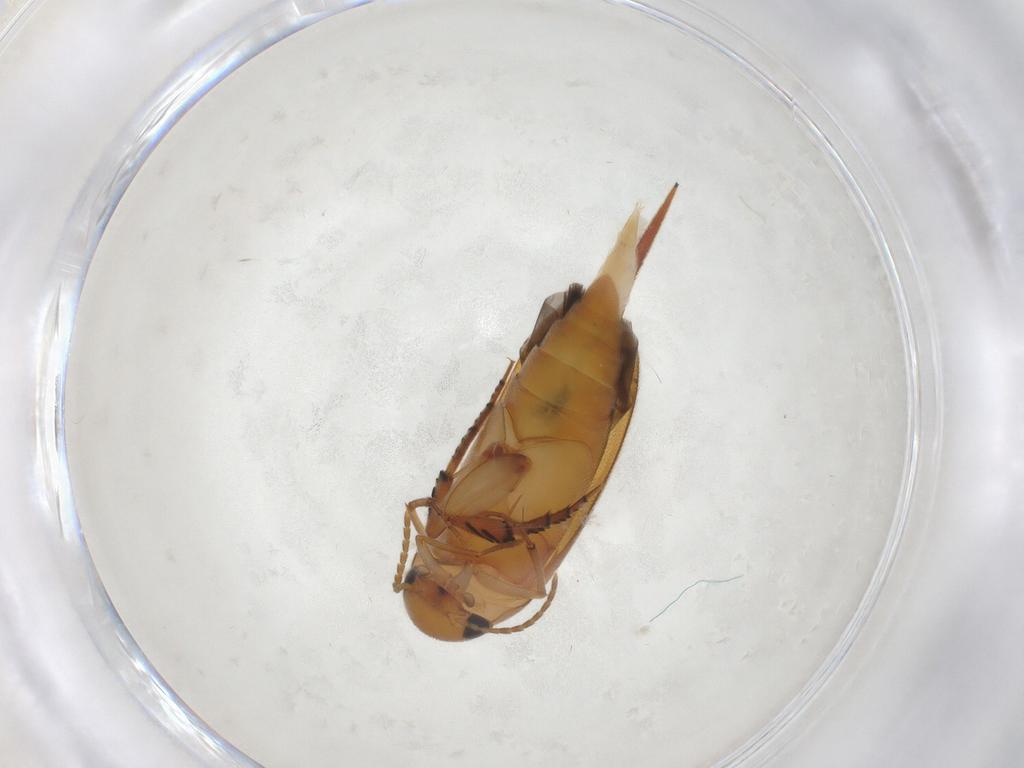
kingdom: Animalia
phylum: Arthropoda
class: Insecta
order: Coleoptera
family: Mordellidae
